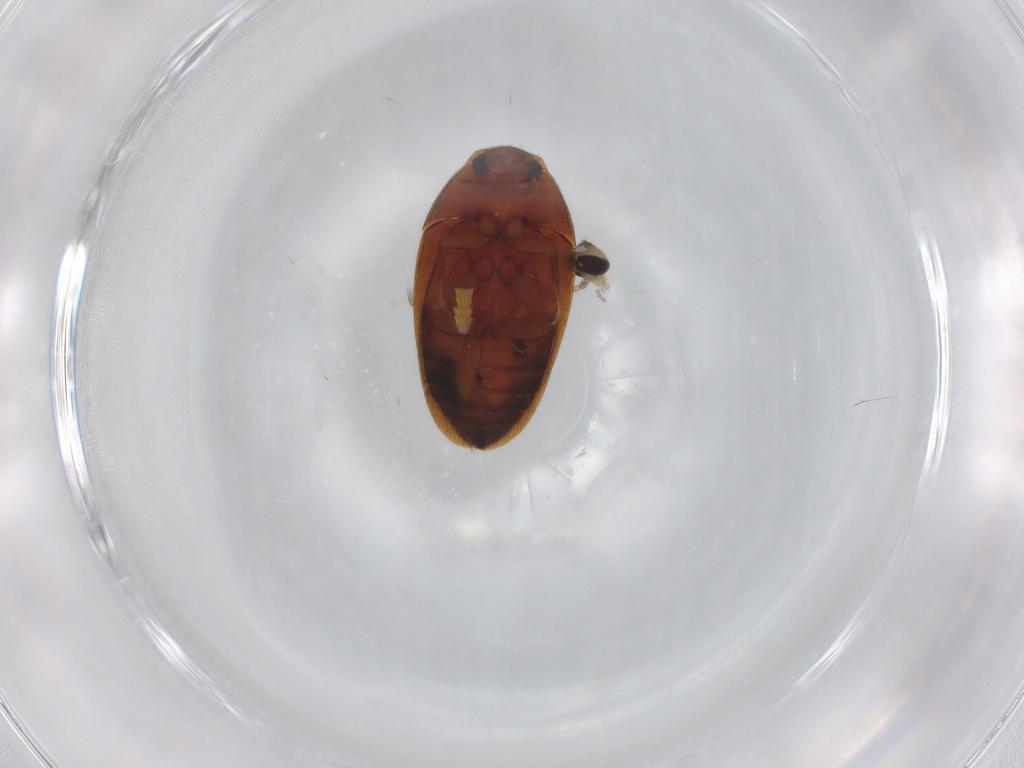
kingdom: Animalia
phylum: Arthropoda
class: Insecta
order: Coleoptera
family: Mycetophagidae
